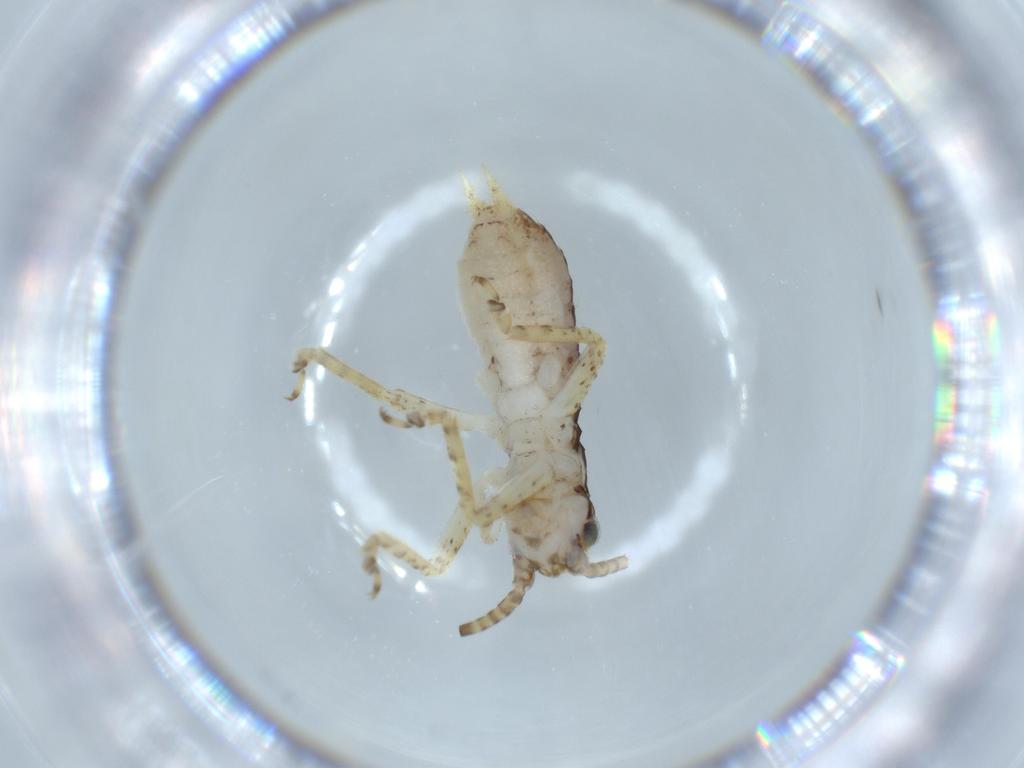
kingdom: Animalia
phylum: Arthropoda
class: Insecta
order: Orthoptera
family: Gryllidae
